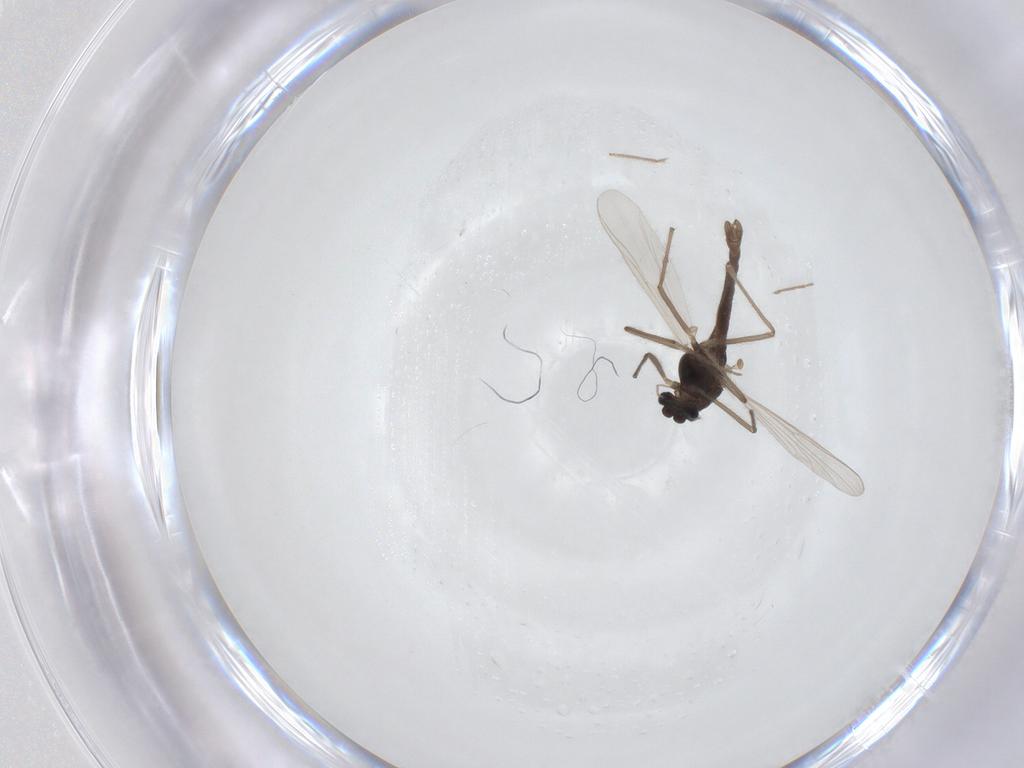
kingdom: Animalia
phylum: Arthropoda
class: Insecta
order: Diptera
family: Chironomidae
